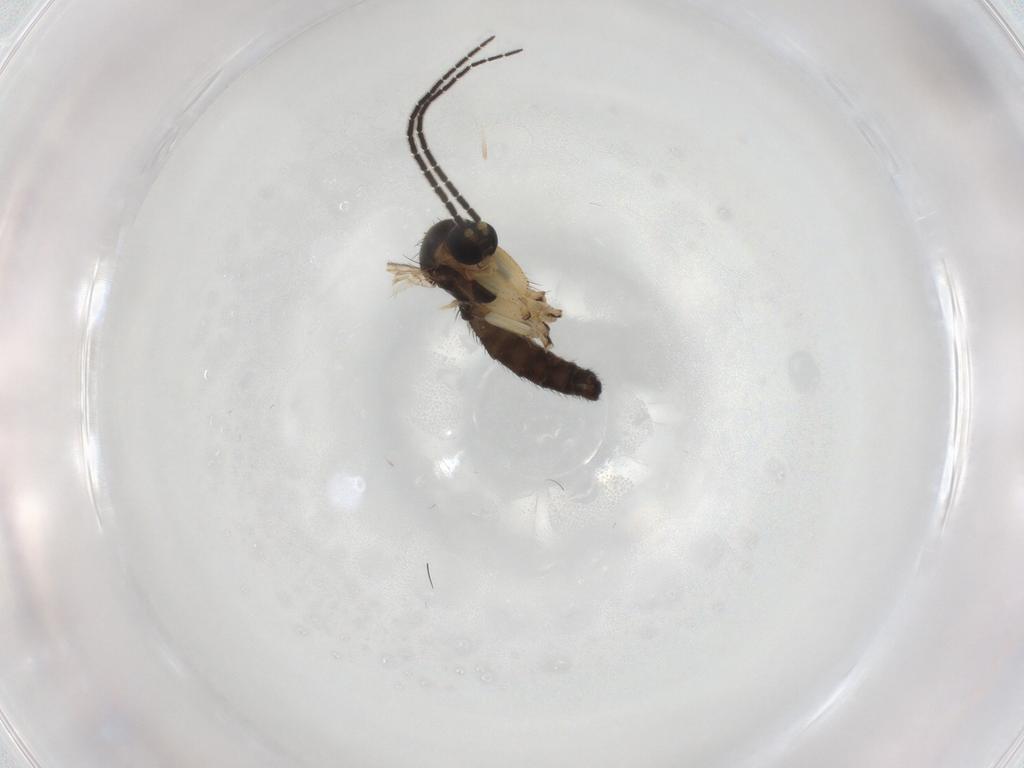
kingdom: Animalia
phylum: Arthropoda
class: Insecta
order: Diptera
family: Sciaridae
